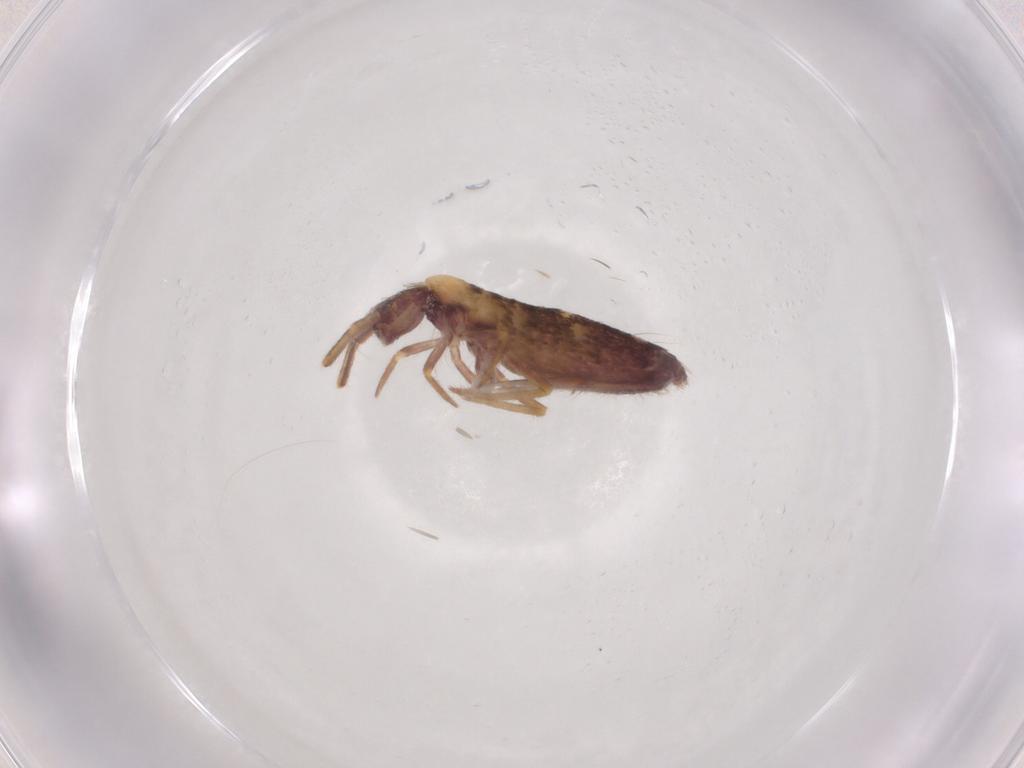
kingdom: Animalia
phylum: Arthropoda
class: Collembola
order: Entomobryomorpha
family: Entomobryidae
